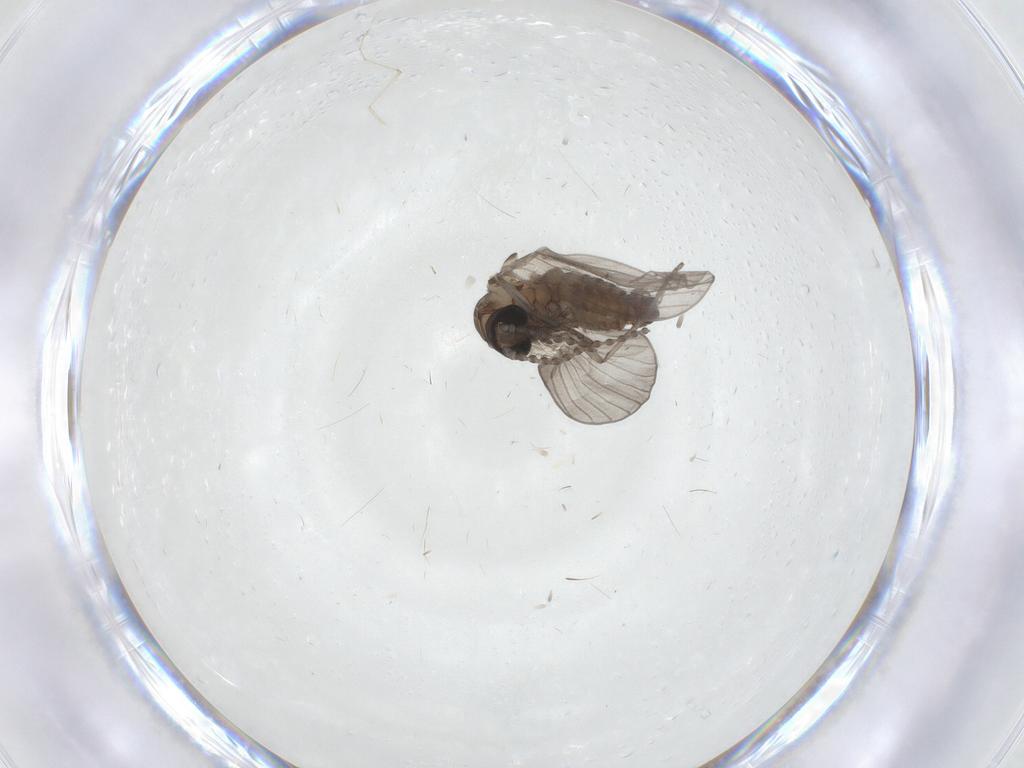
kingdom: Animalia
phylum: Arthropoda
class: Insecta
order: Diptera
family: Psychodidae
